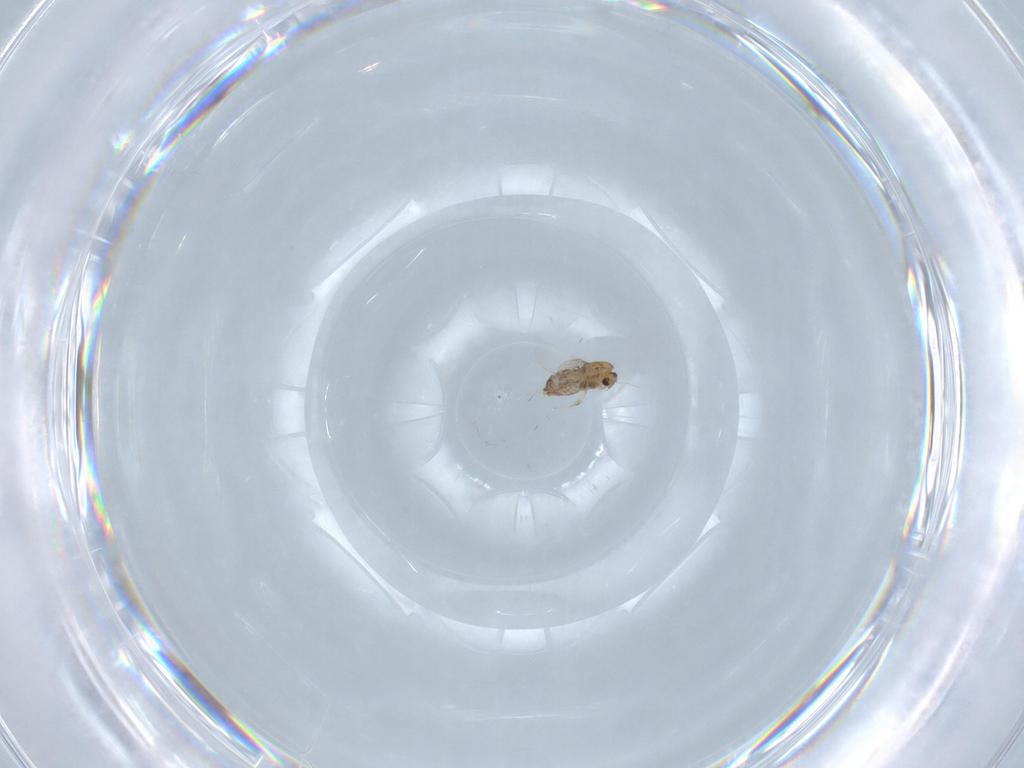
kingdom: Animalia
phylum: Arthropoda
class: Insecta
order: Diptera
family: Chironomidae
